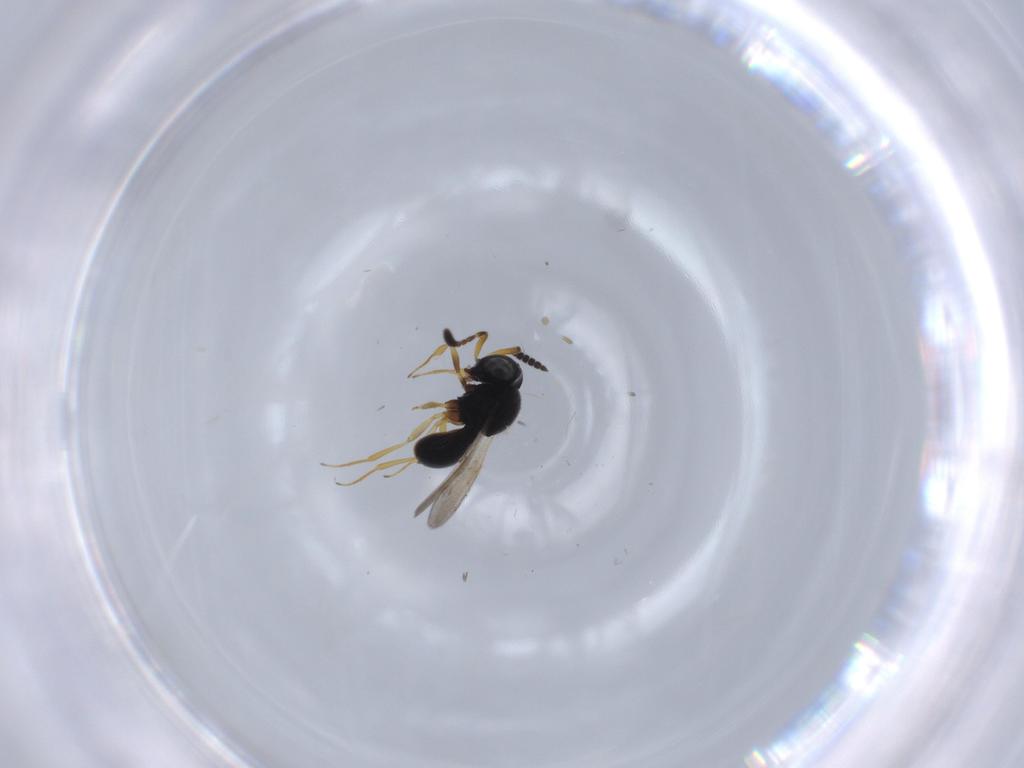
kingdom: Animalia
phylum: Arthropoda
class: Insecta
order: Hymenoptera
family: Scelionidae
